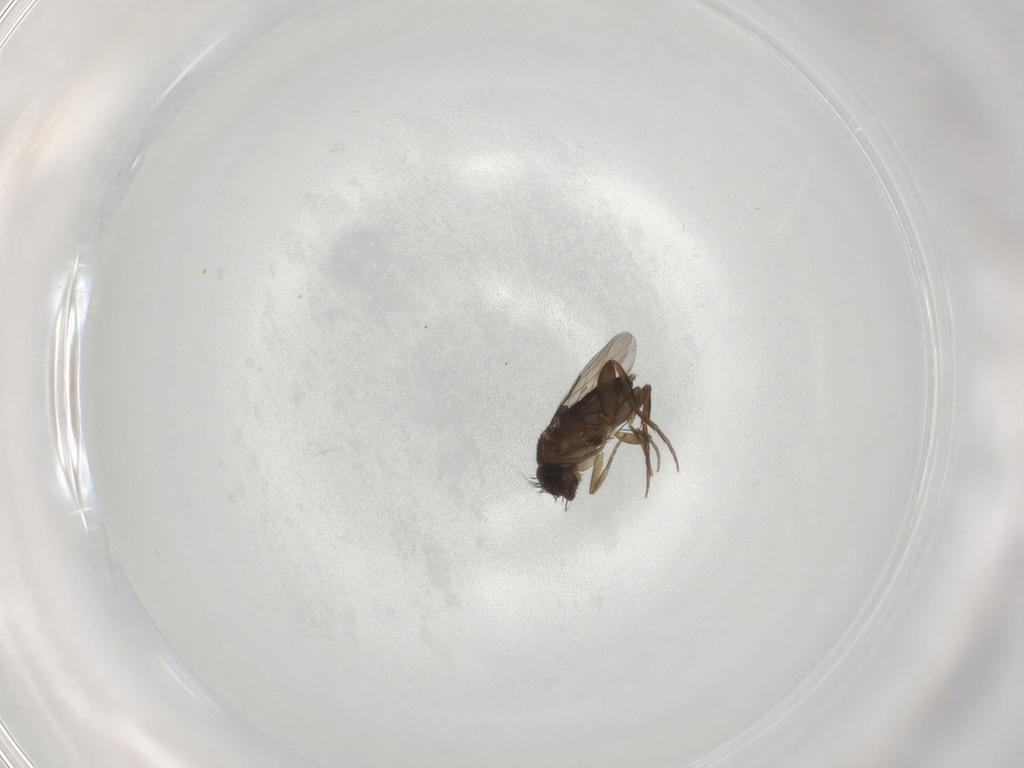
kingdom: Animalia
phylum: Arthropoda
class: Insecta
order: Diptera
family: Phoridae
